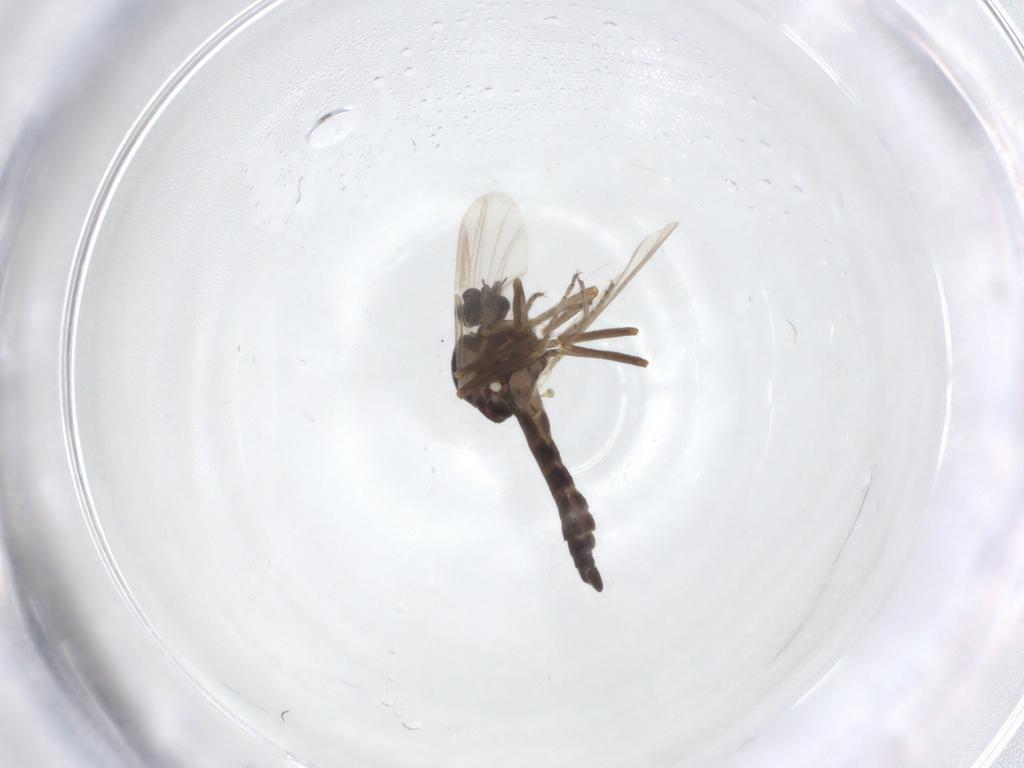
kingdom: Animalia
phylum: Arthropoda
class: Insecta
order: Diptera
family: Ceratopogonidae
